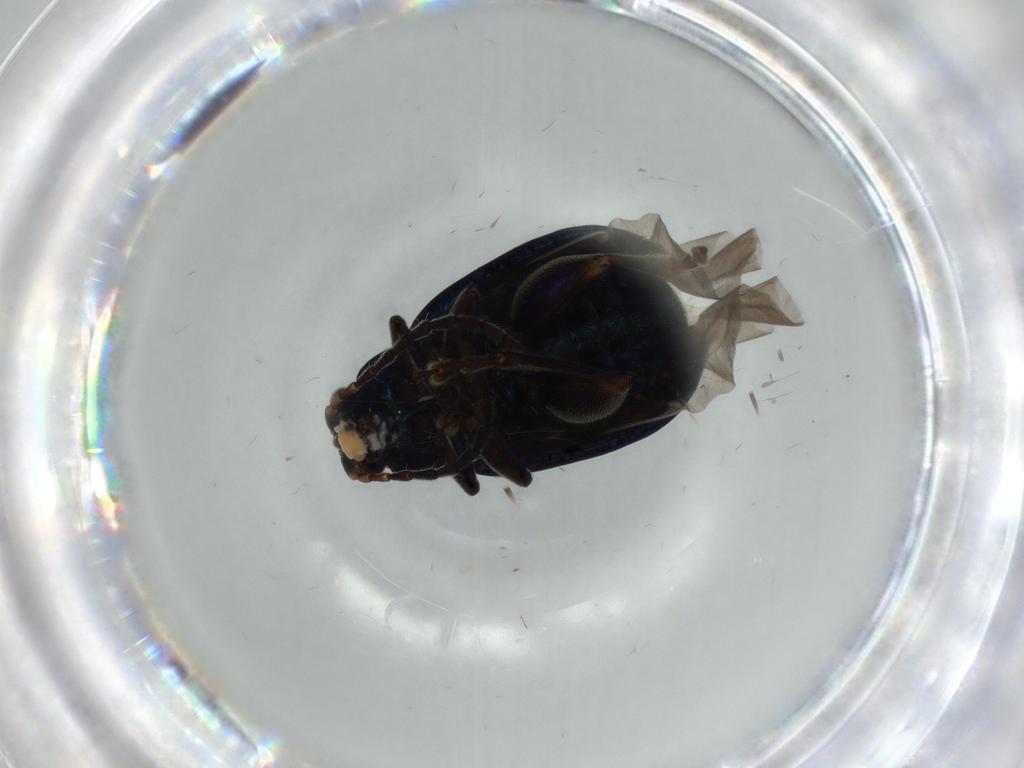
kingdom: Animalia
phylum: Arthropoda
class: Insecta
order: Coleoptera
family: Chrysomelidae
